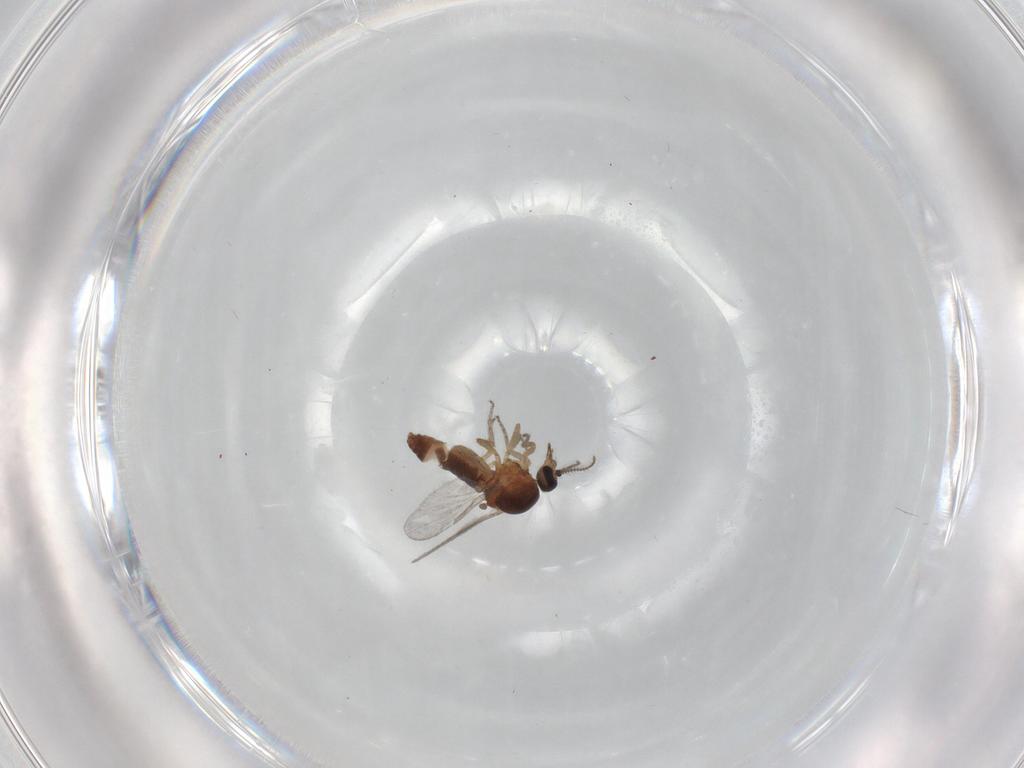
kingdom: Animalia
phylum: Arthropoda
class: Insecta
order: Diptera
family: Ceratopogonidae
